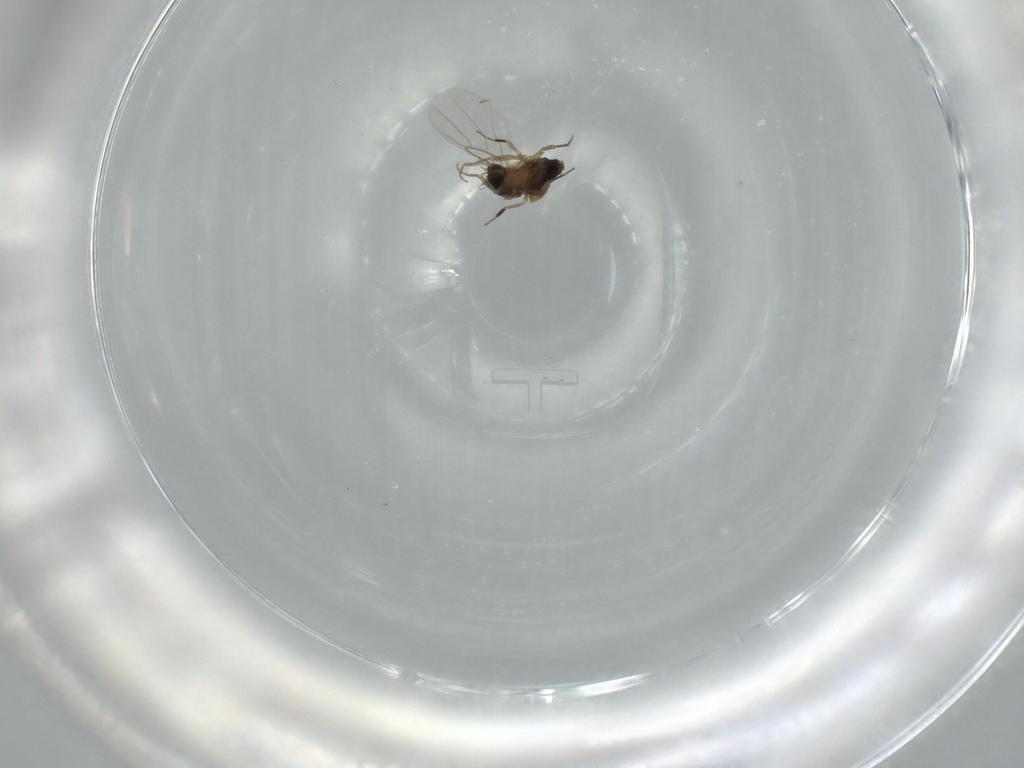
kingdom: Animalia
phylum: Arthropoda
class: Insecta
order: Diptera
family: Phoridae
